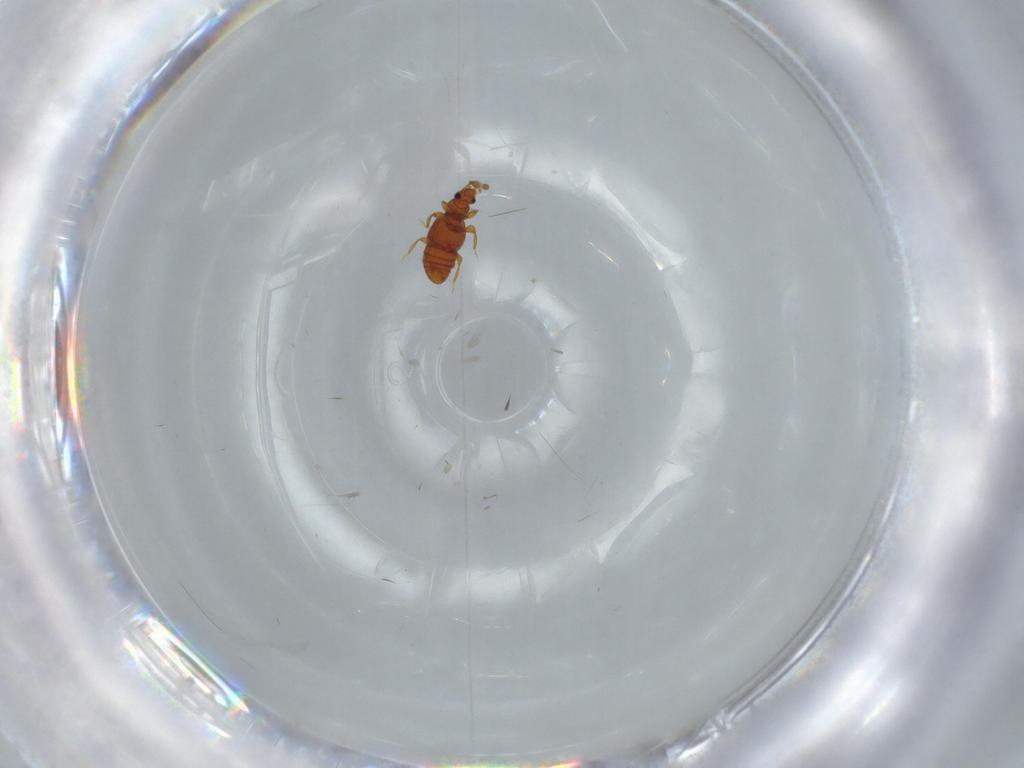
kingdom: Animalia
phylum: Arthropoda
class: Insecta
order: Coleoptera
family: Staphylinidae
